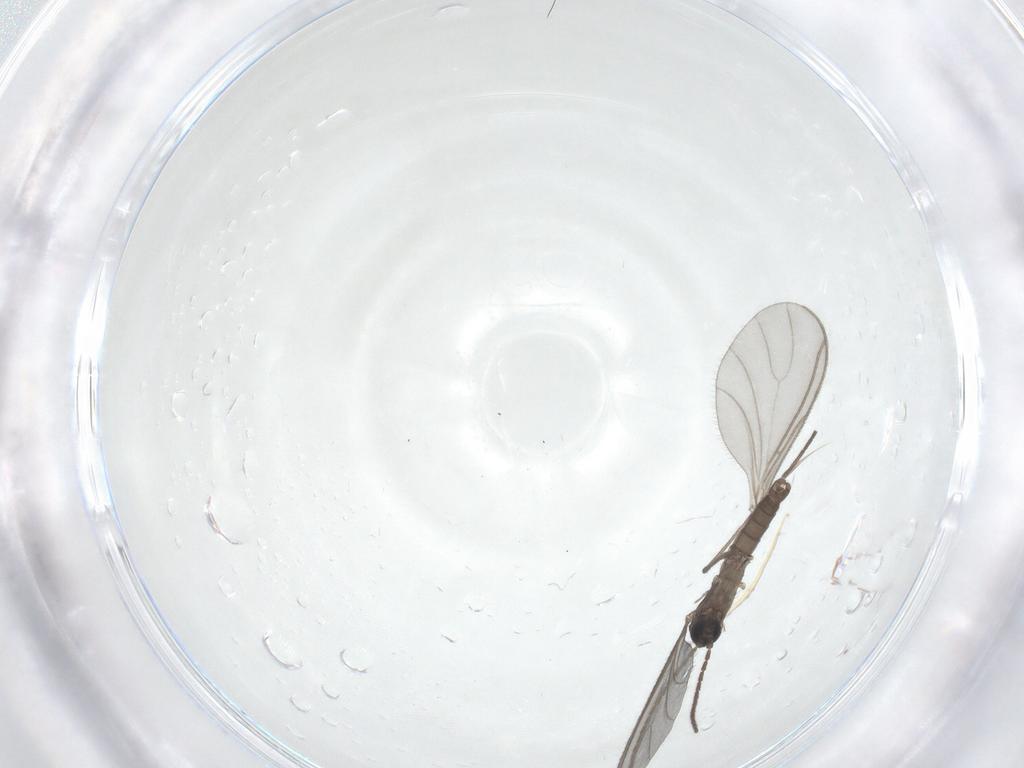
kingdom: Animalia
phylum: Arthropoda
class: Insecta
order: Diptera
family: Sciaridae
